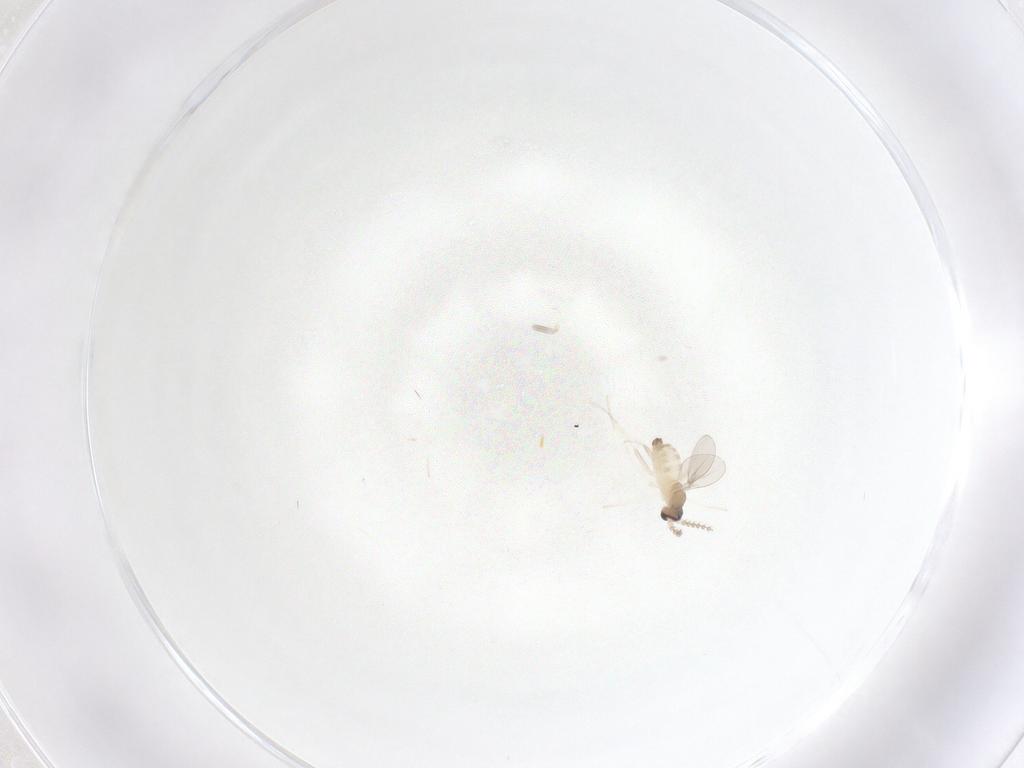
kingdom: Animalia
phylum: Arthropoda
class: Insecta
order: Diptera
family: Cecidomyiidae
